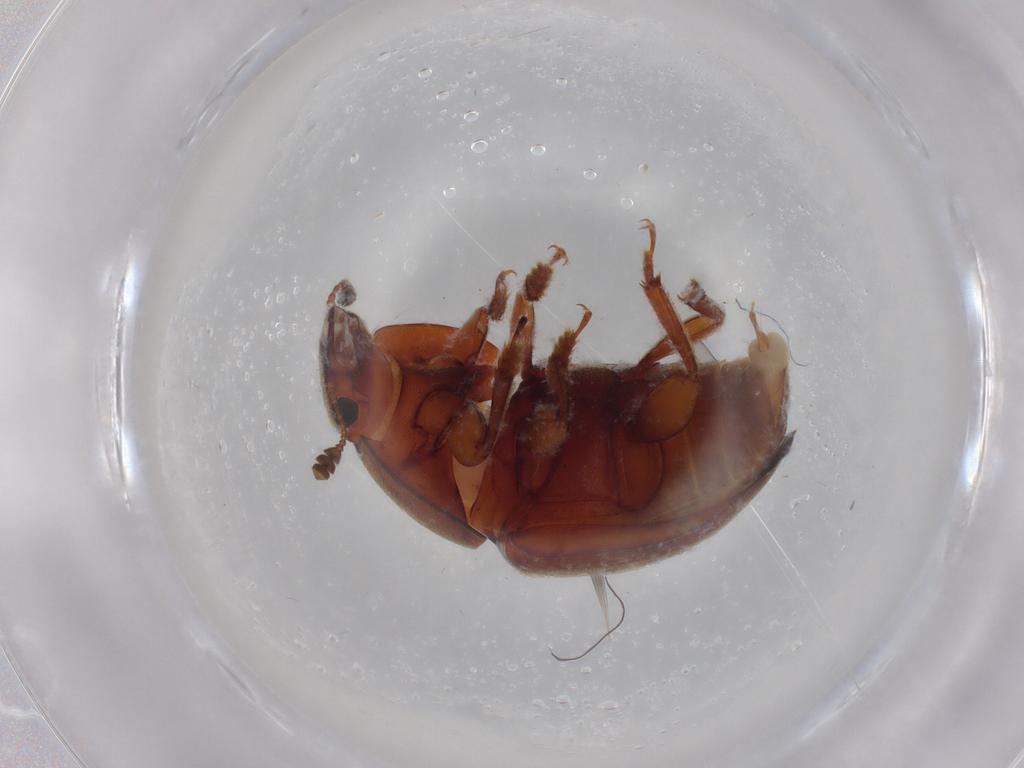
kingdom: Animalia
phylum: Arthropoda
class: Insecta
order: Coleoptera
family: Nitidulidae
